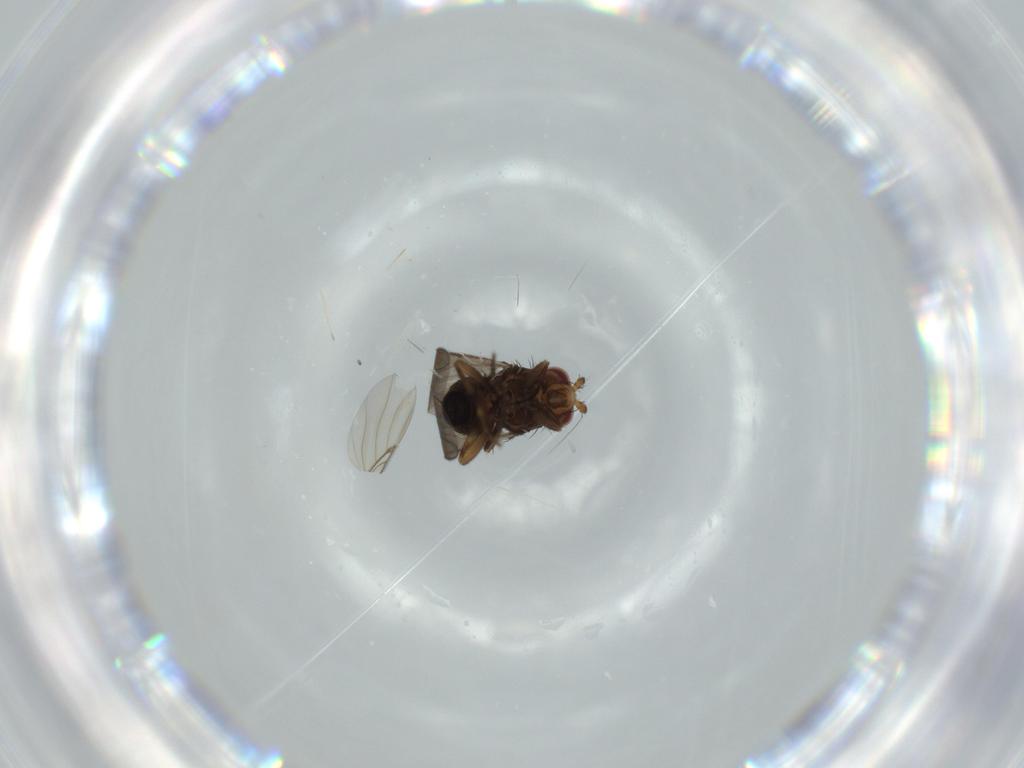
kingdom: Animalia
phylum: Arthropoda
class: Insecta
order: Diptera
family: Sphaeroceridae
